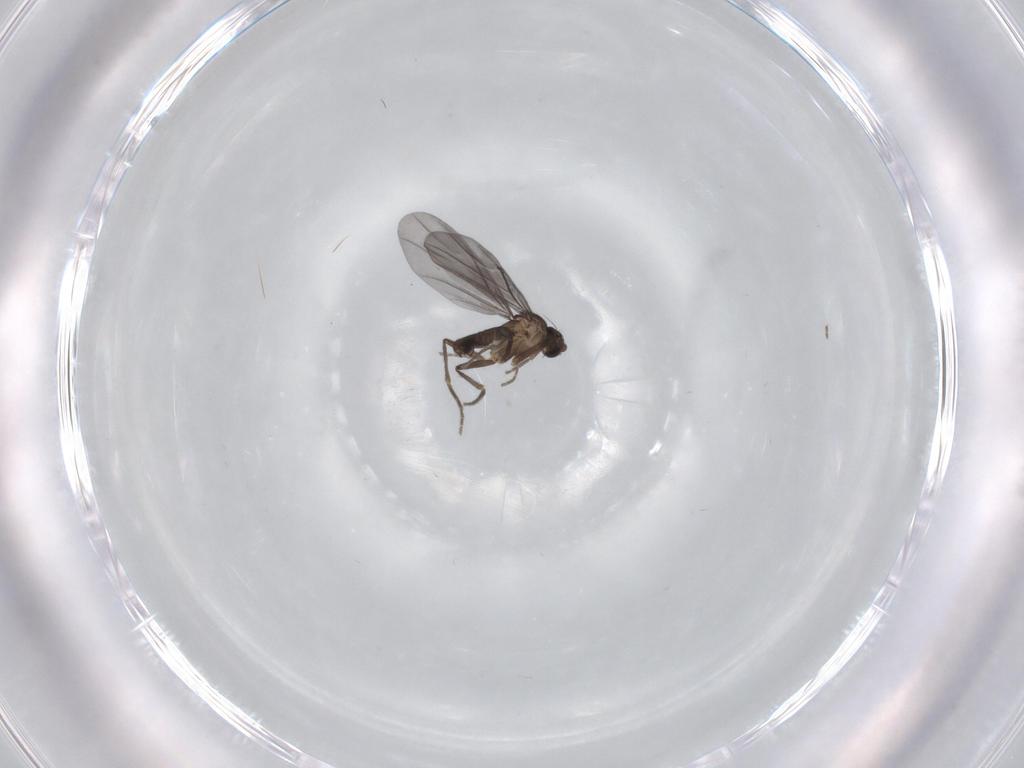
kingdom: Animalia
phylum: Arthropoda
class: Insecta
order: Diptera
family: Phoridae
